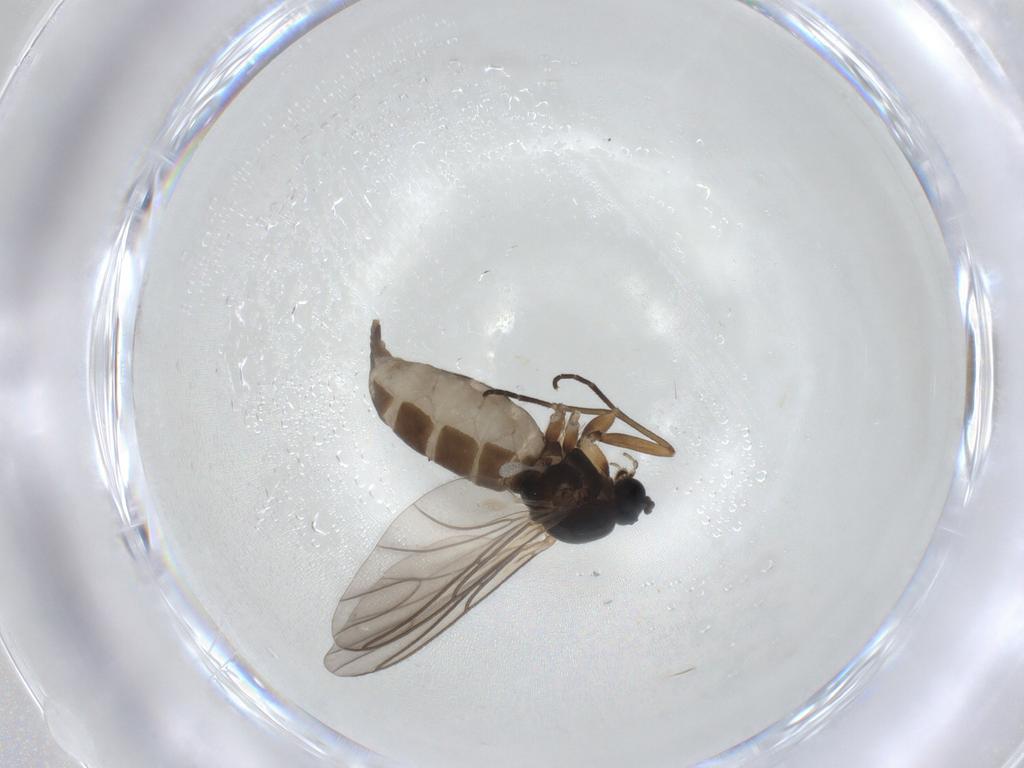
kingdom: Animalia
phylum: Arthropoda
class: Insecta
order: Diptera
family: Sciaridae
